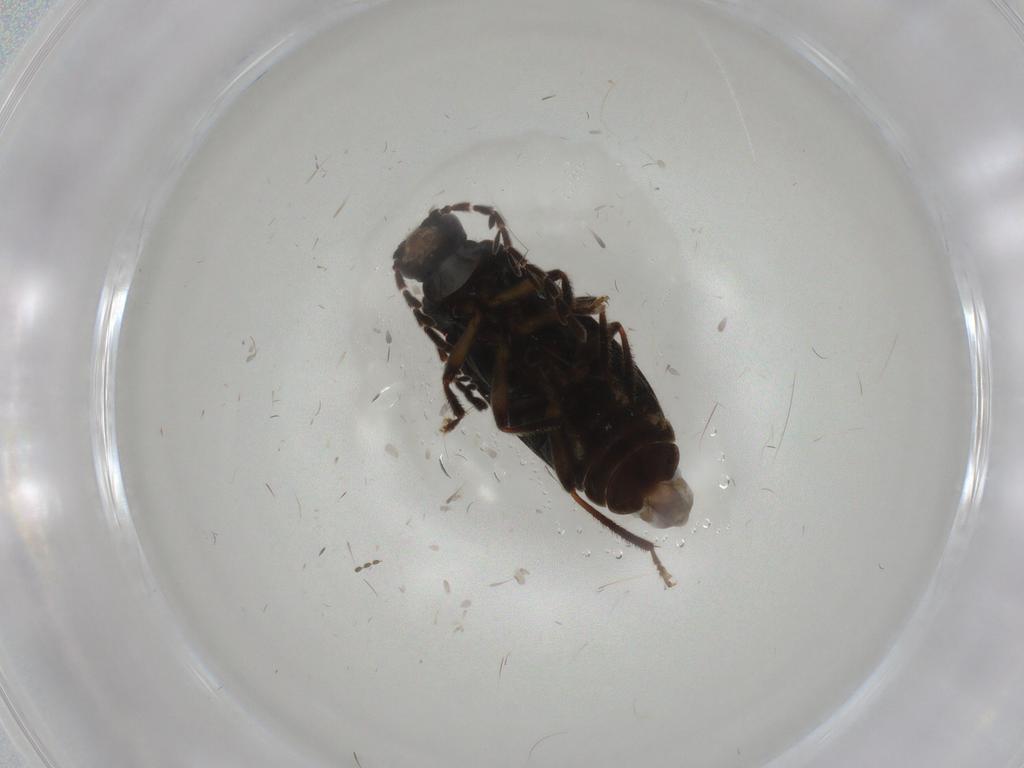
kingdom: Animalia
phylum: Arthropoda
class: Insecta
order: Coleoptera
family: Ptilodactylidae
